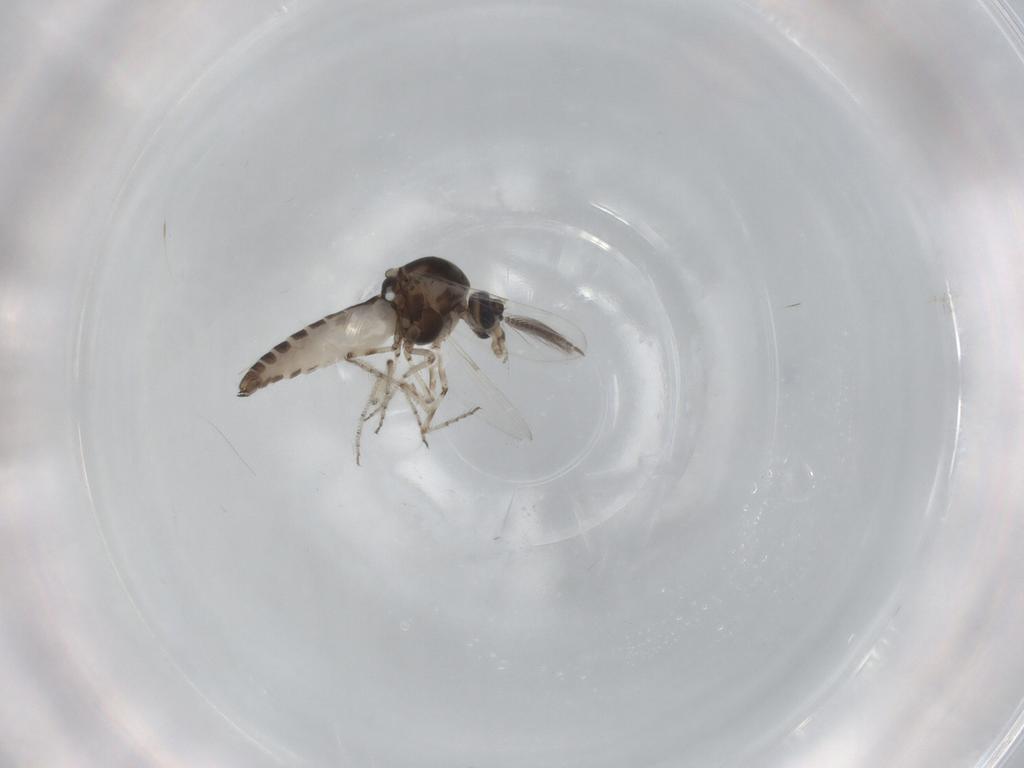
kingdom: Animalia
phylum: Arthropoda
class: Insecta
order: Diptera
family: Ceratopogonidae
